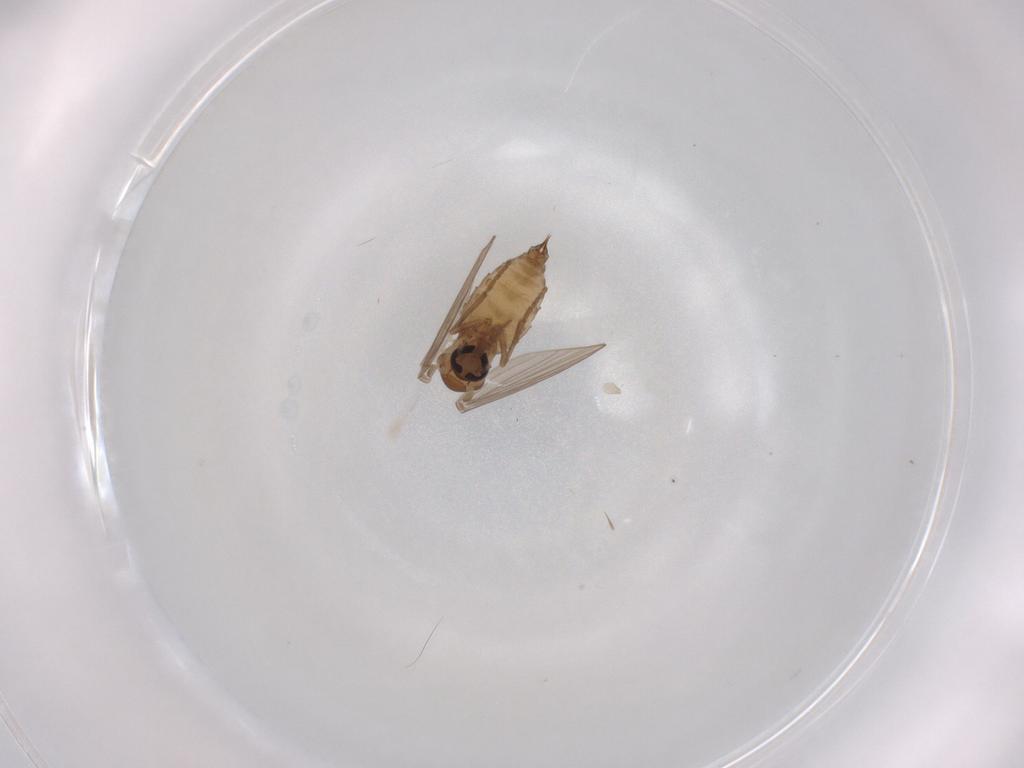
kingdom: Animalia
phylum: Arthropoda
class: Insecta
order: Diptera
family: Psychodidae
